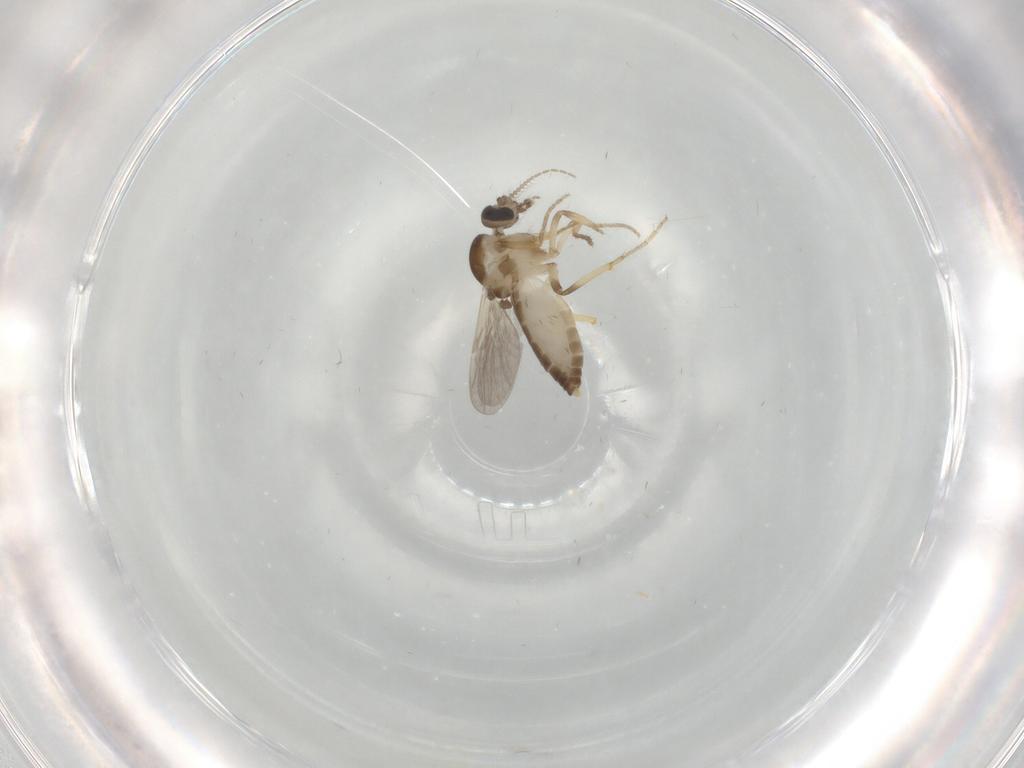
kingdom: Animalia
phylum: Arthropoda
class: Insecta
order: Diptera
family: Ceratopogonidae
